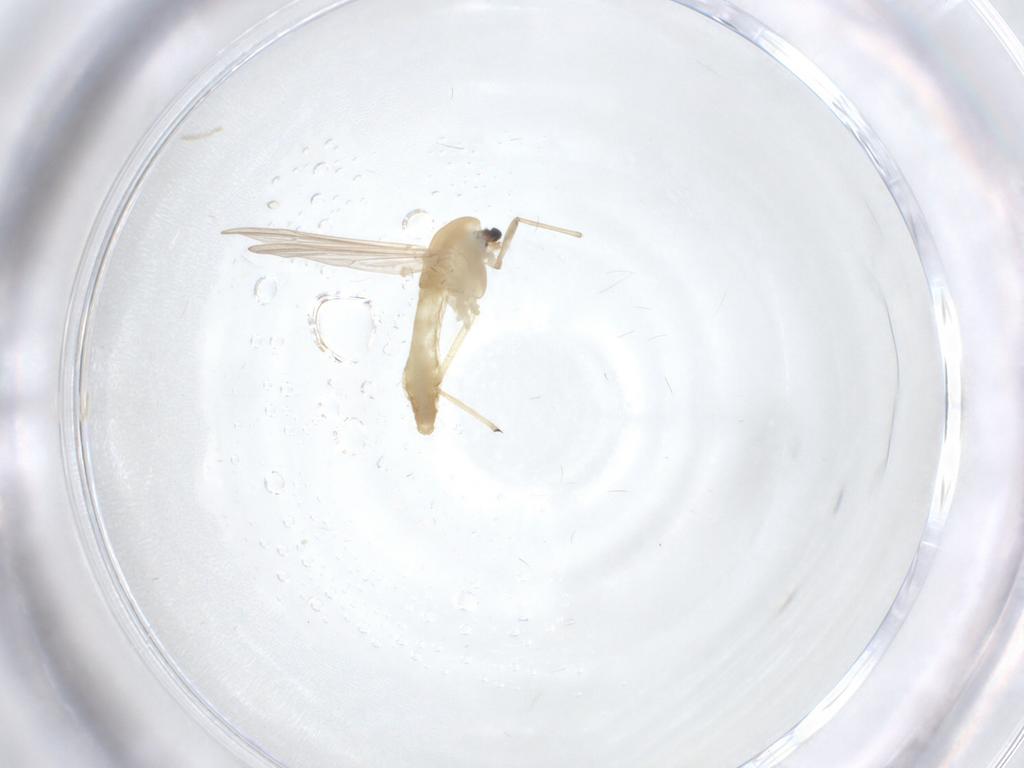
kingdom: Animalia
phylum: Arthropoda
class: Insecta
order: Diptera
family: Chironomidae
